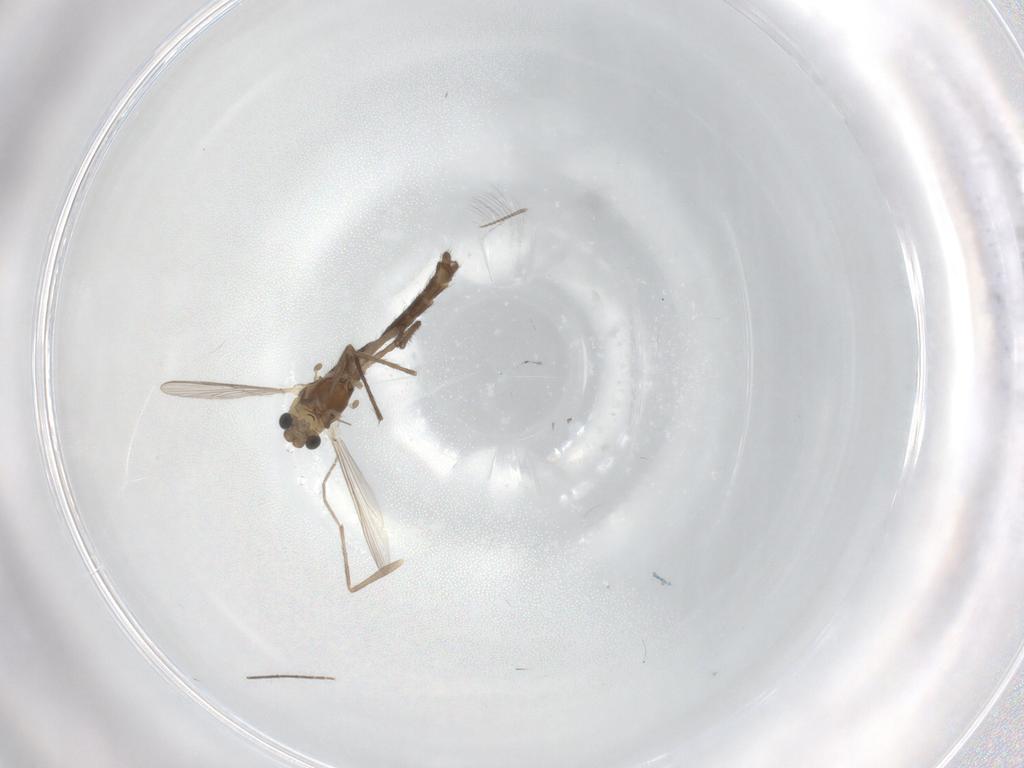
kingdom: Animalia
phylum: Arthropoda
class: Insecta
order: Diptera
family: Chironomidae
